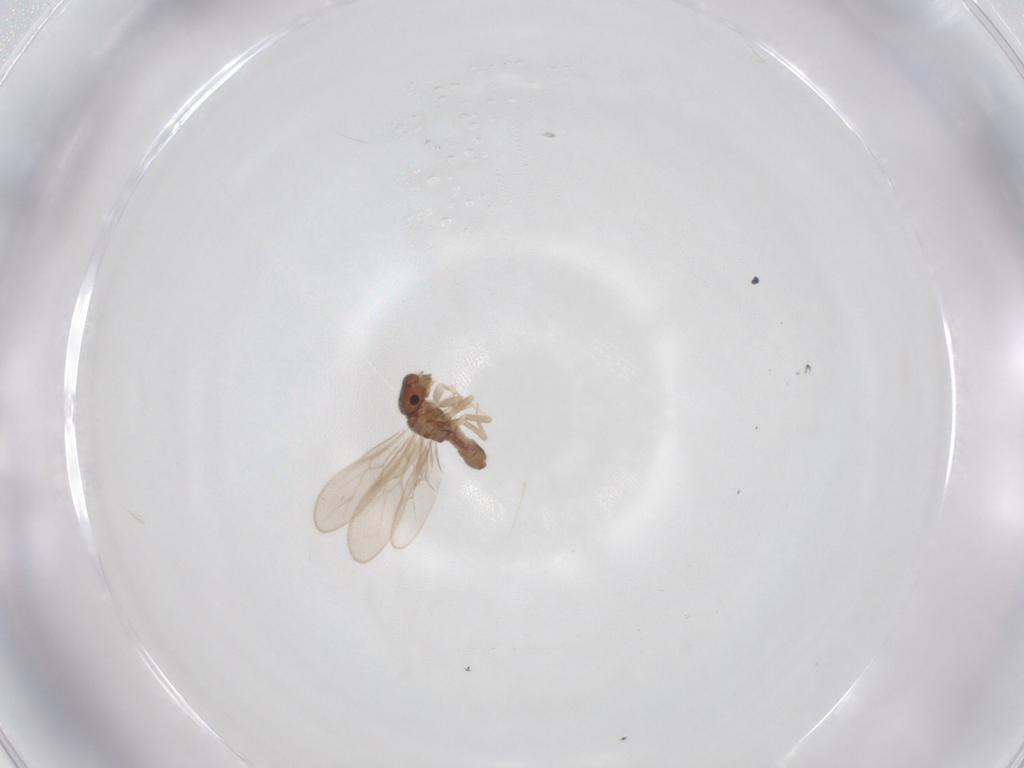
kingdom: Animalia
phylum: Arthropoda
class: Insecta
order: Psocodea
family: Archipsocidae
